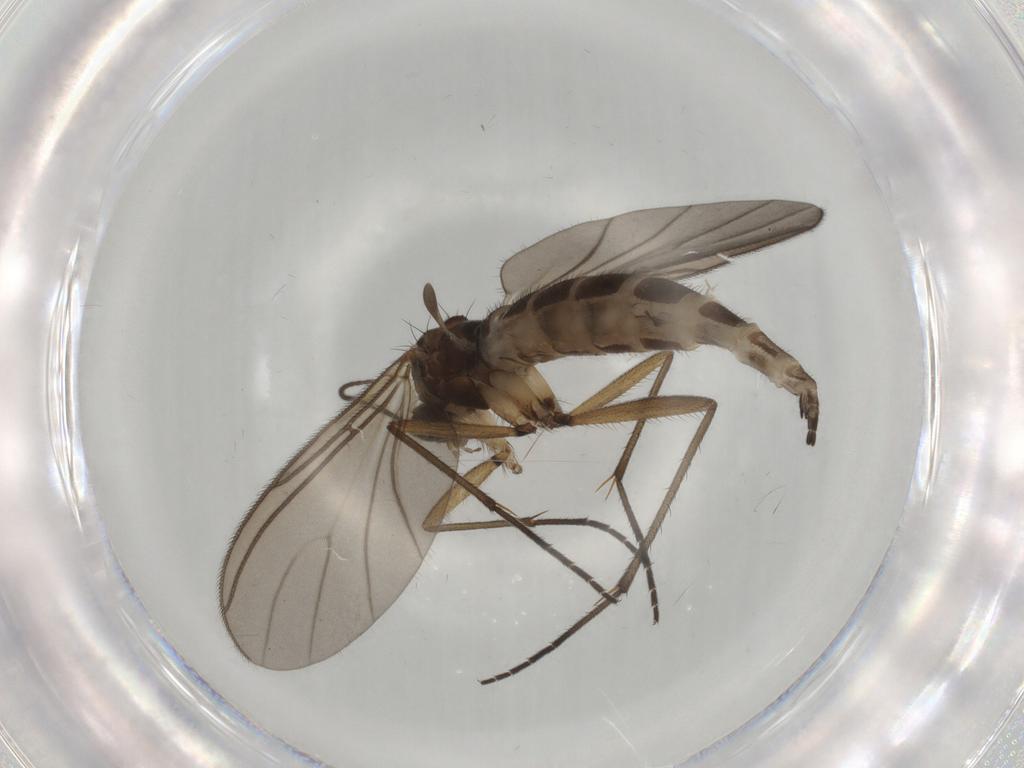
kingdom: Animalia
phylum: Arthropoda
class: Insecta
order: Diptera
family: Sciaridae
